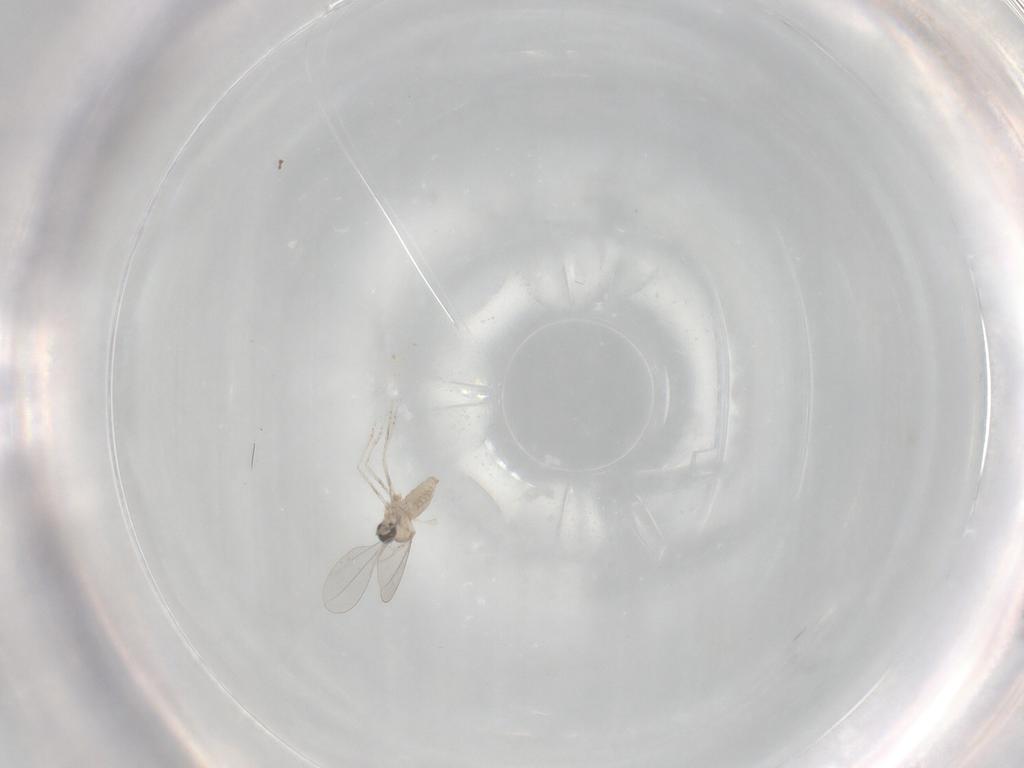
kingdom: Animalia
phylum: Arthropoda
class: Insecta
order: Diptera
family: Cecidomyiidae
